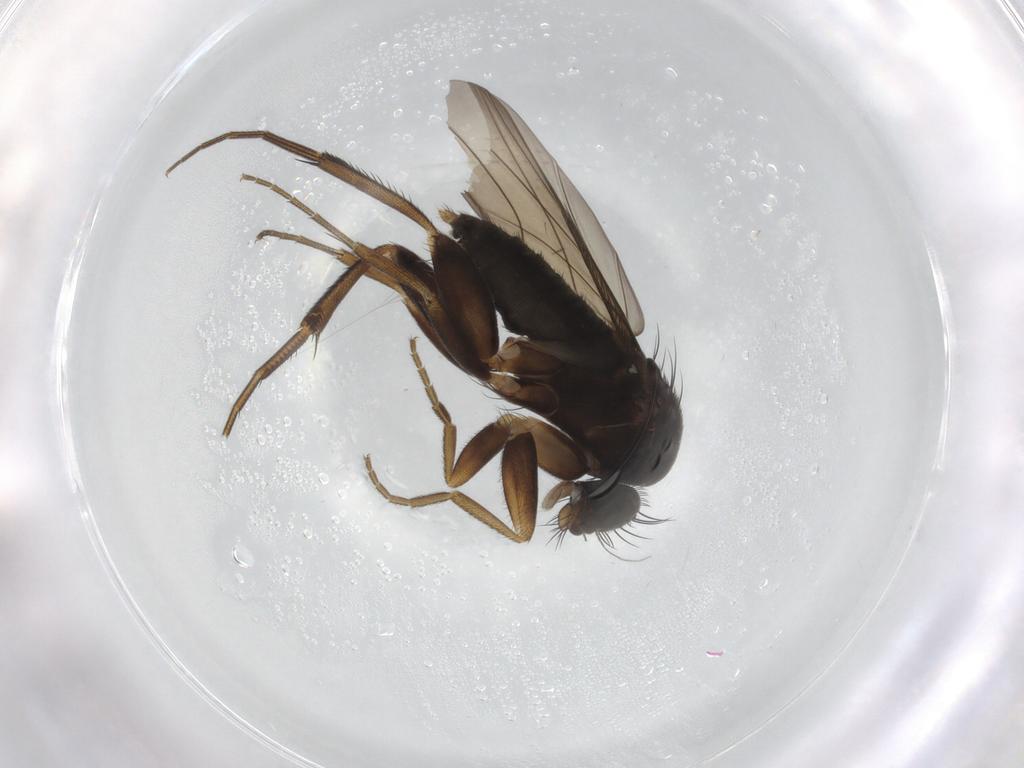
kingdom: Animalia
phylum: Arthropoda
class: Insecta
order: Diptera
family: Phoridae
